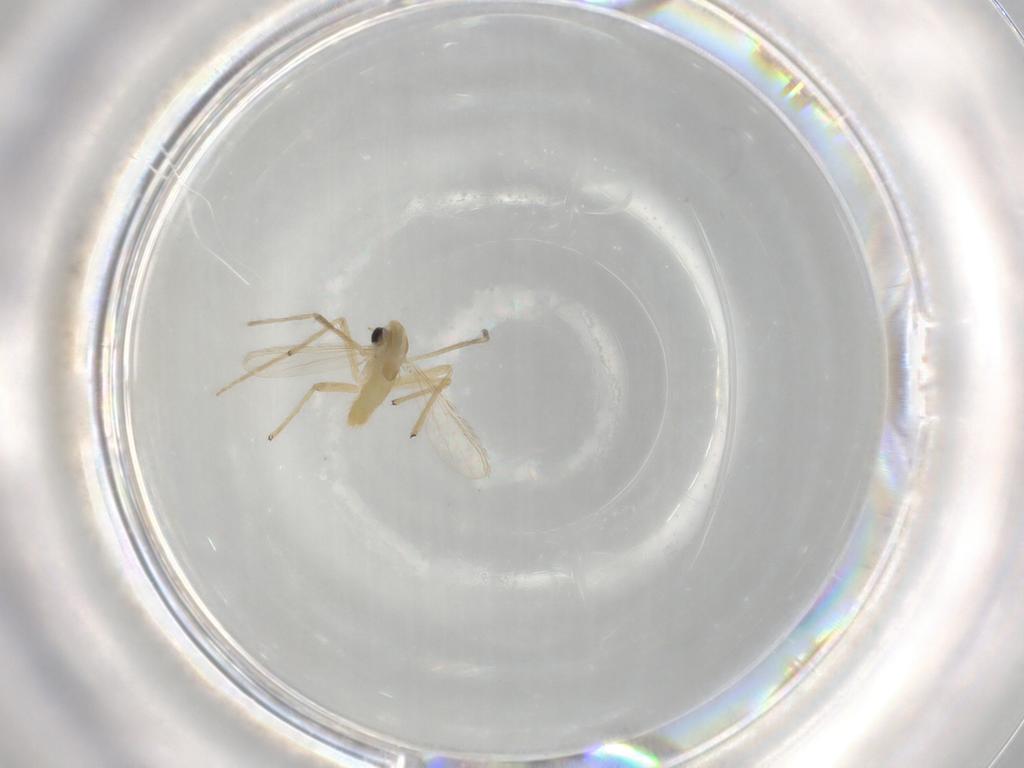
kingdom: Animalia
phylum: Arthropoda
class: Insecta
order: Diptera
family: Chironomidae
